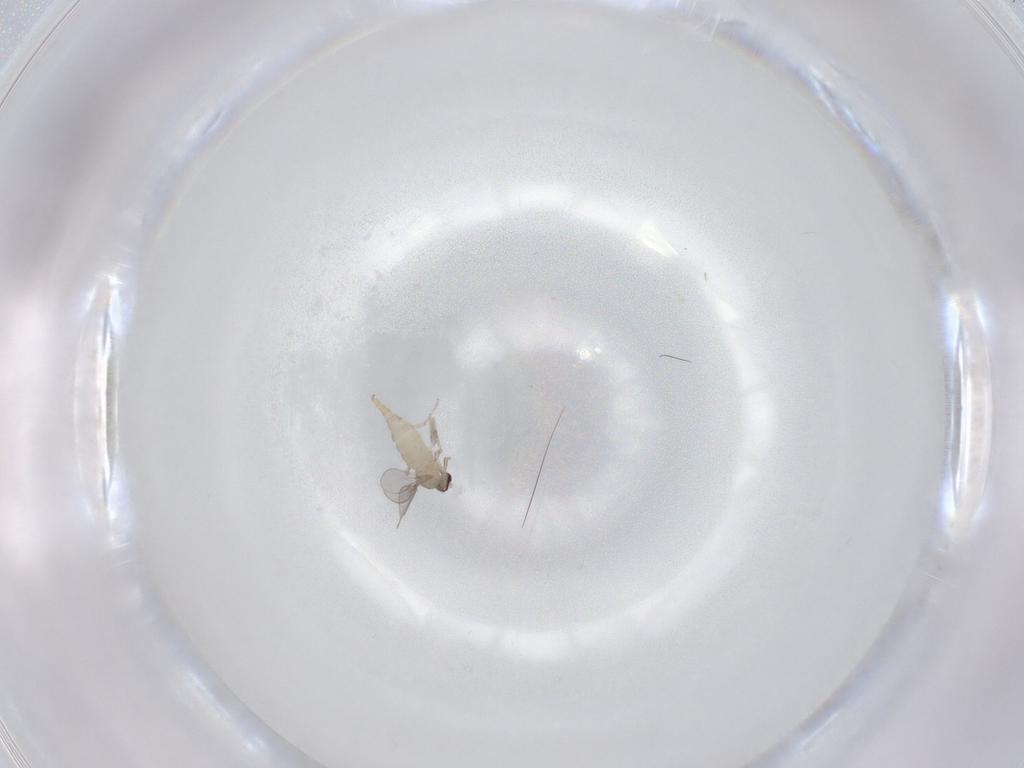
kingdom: Animalia
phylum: Arthropoda
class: Insecta
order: Diptera
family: Cecidomyiidae
